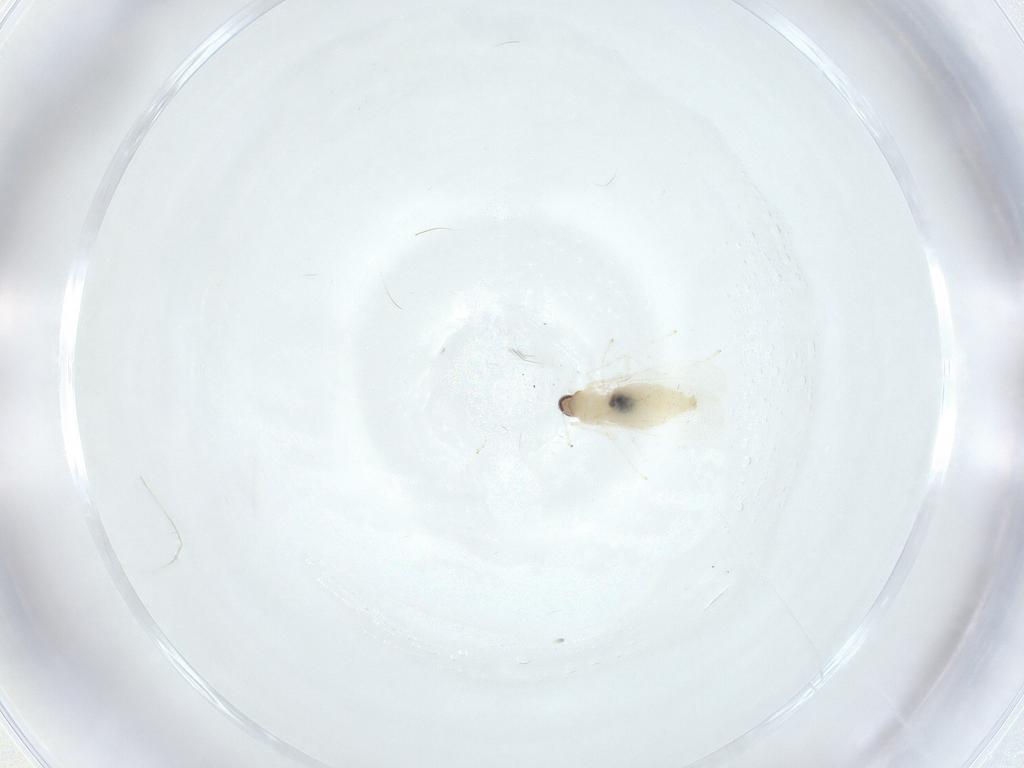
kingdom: Animalia
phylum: Arthropoda
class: Insecta
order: Diptera
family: Cecidomyiidae
